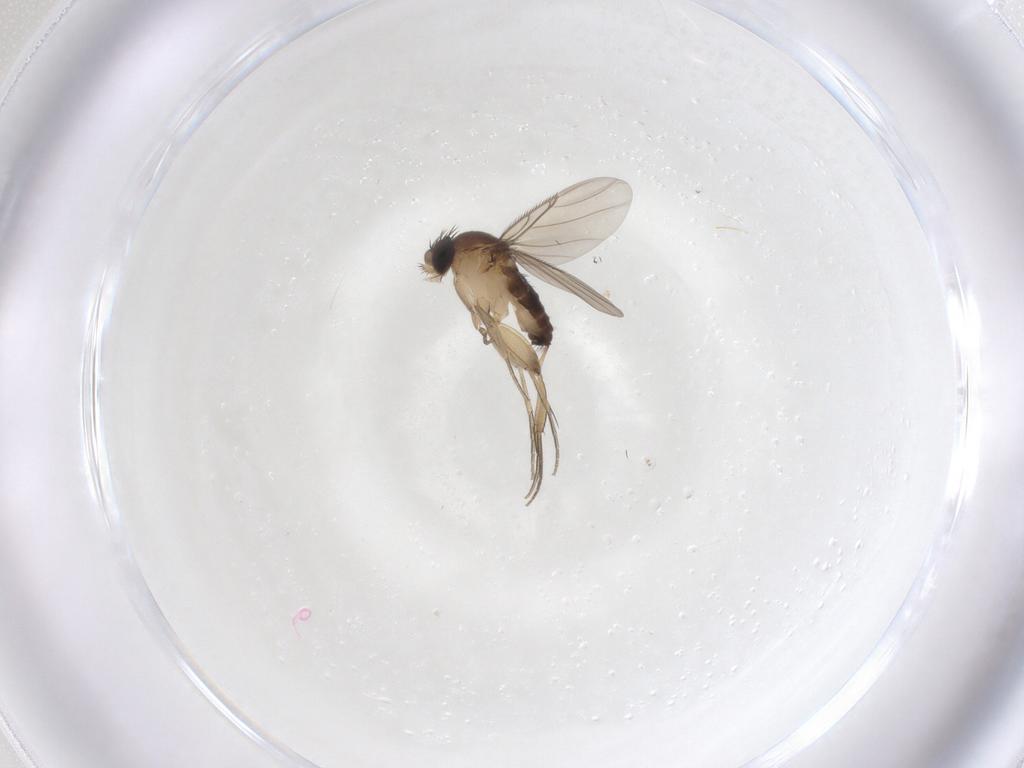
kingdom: Animalia
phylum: Arthropoda
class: Insecta
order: Diptera
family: Phoridae
